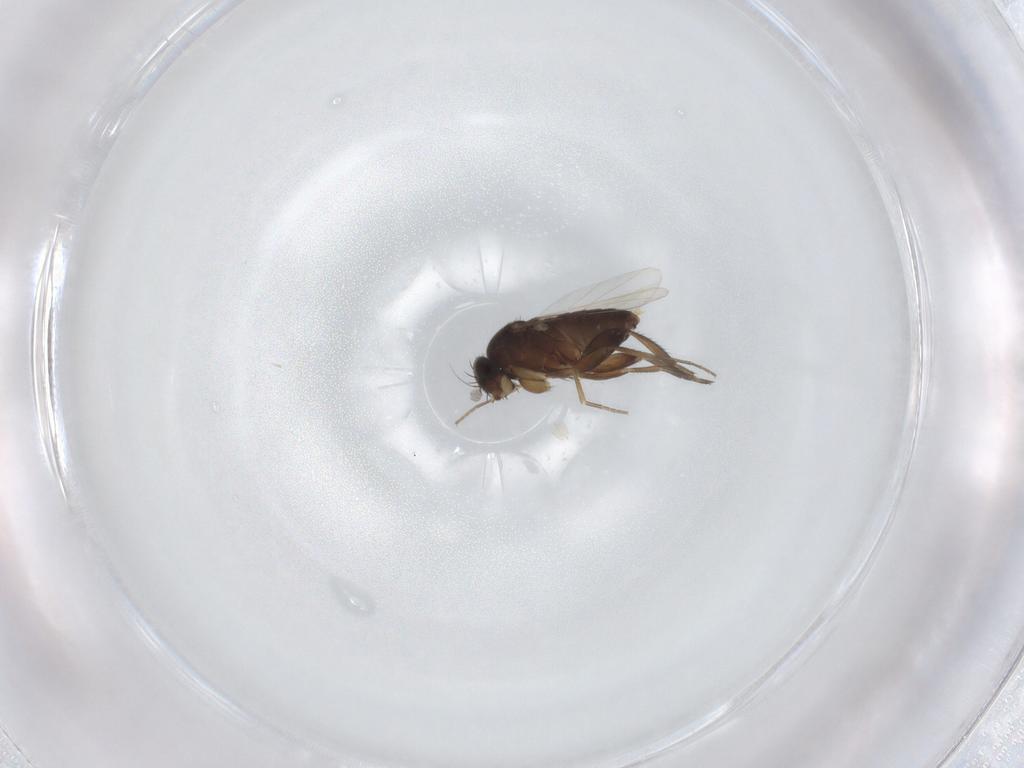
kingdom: Animalia
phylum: Arthropoda
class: Insecta
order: Diptera
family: Phoridae
